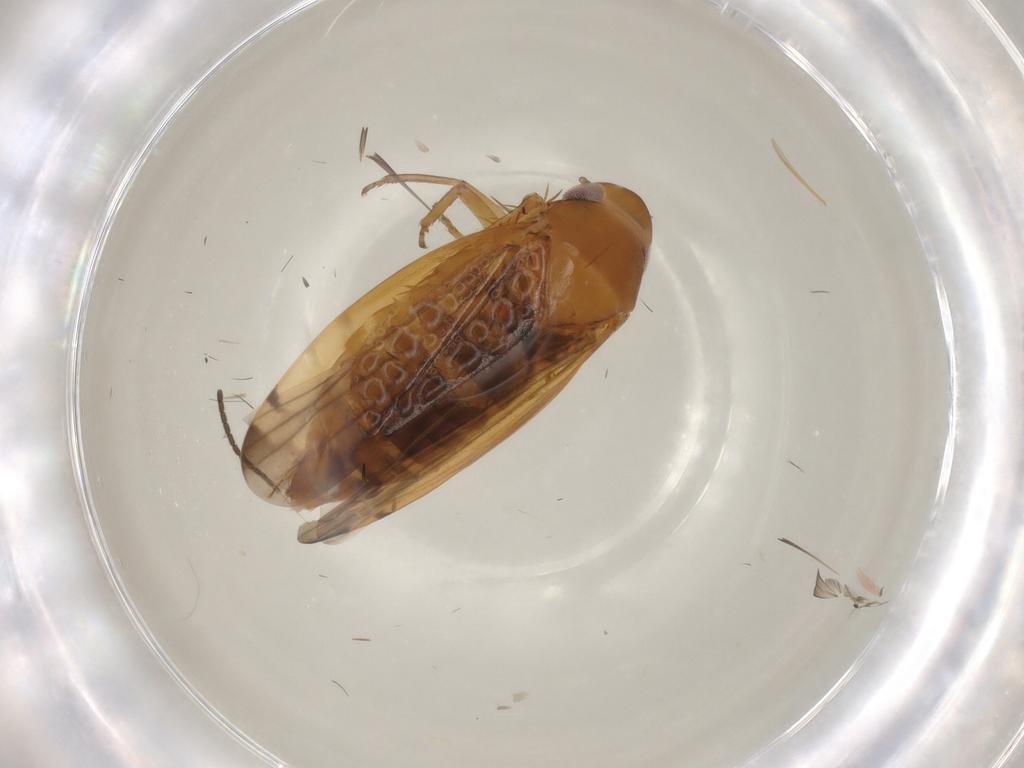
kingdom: Animalia
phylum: Arthropoda
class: Insecta
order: Hemiptera
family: Cicadellidae
